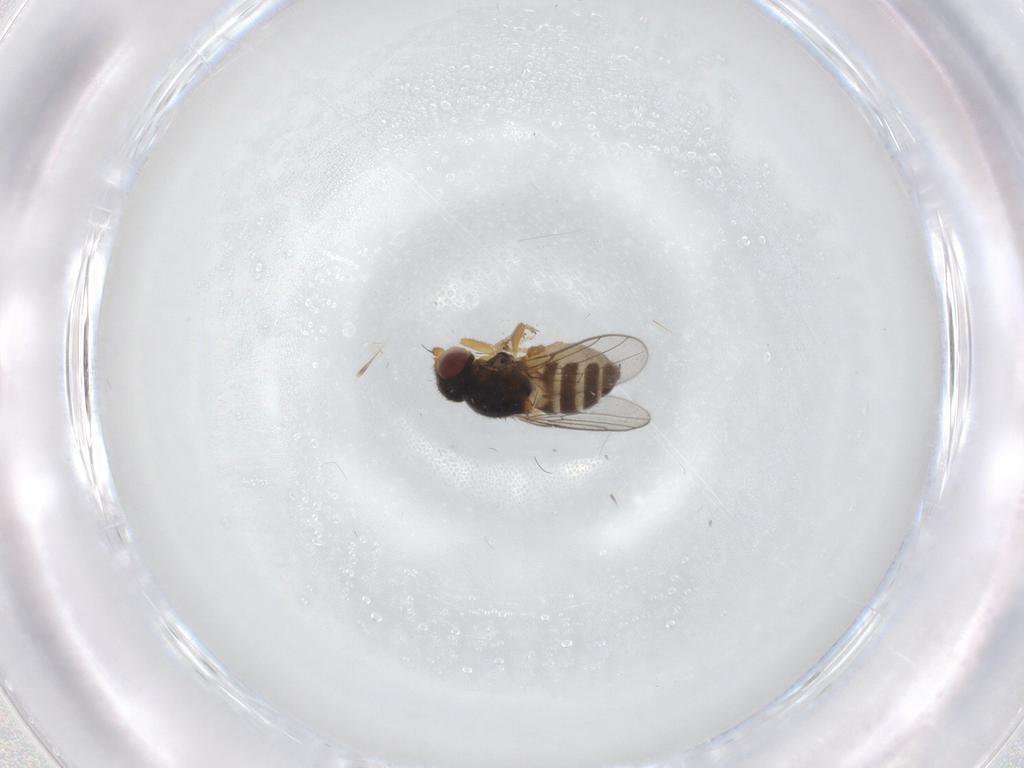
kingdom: Animalia
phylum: Arthropoda
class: Insecta
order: Diptera
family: Chloropidae
